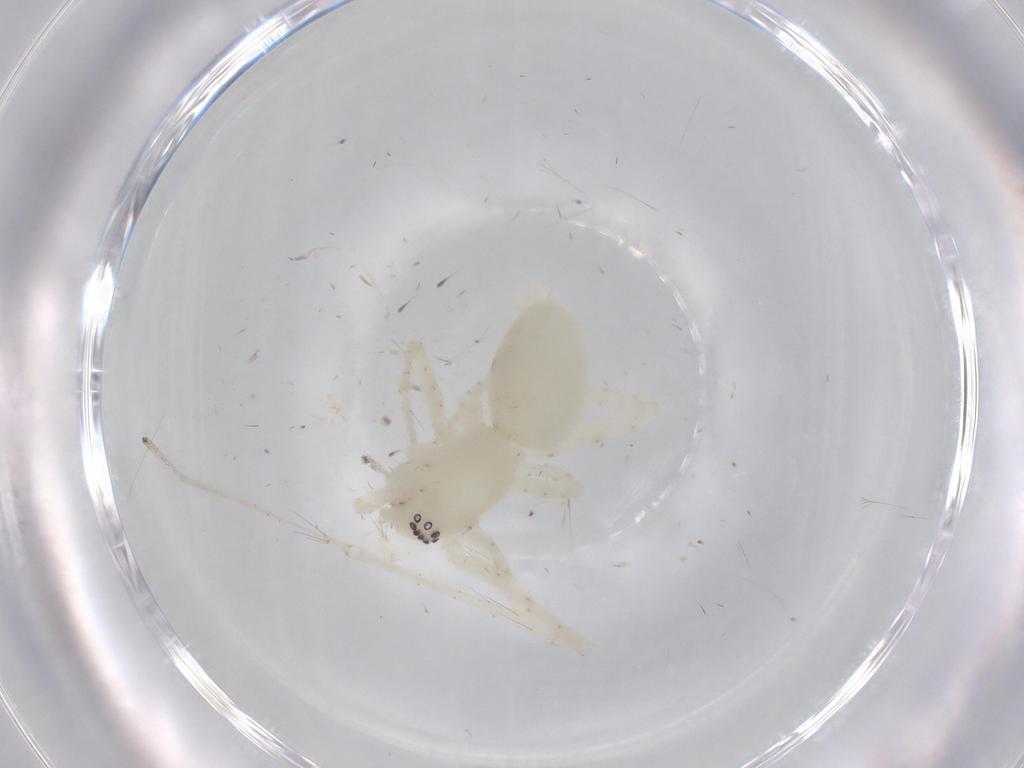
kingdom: Animalia
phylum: Arthropoda
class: Arachnida
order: Araneae
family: Anyphaenidae
